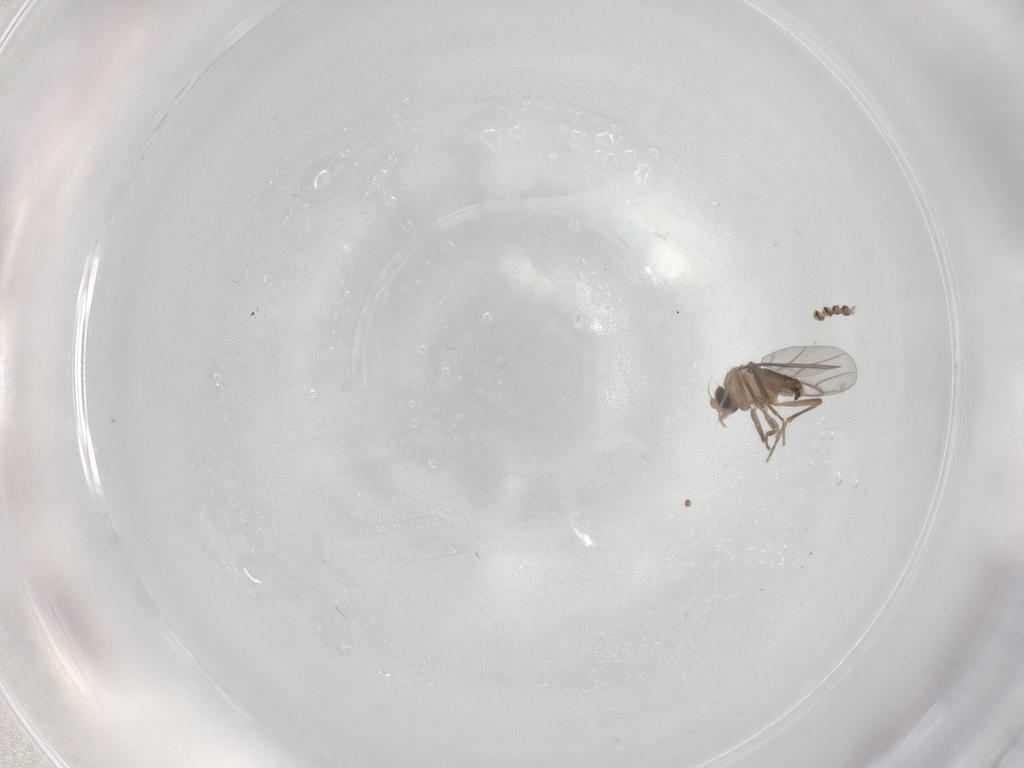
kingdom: Animalia
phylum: Arthropoda
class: Insecta
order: Diptera
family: Psychodidae
